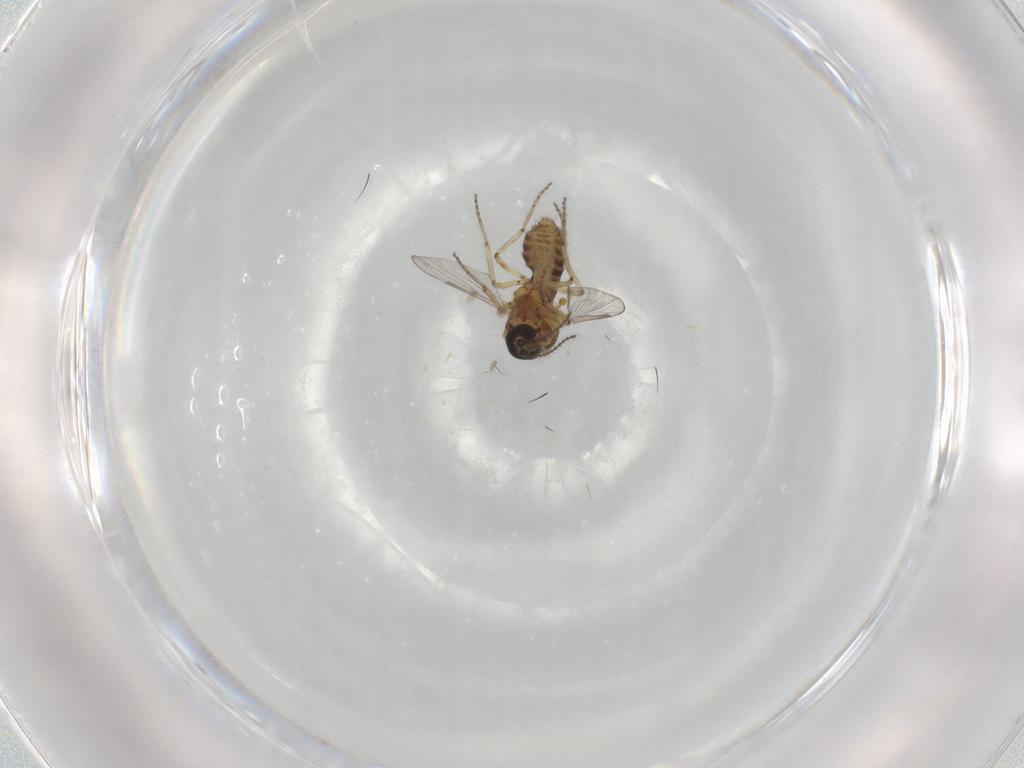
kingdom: Animalia
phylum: Arthropoda
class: Insecta
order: Diptera
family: Ceratopogonidae
